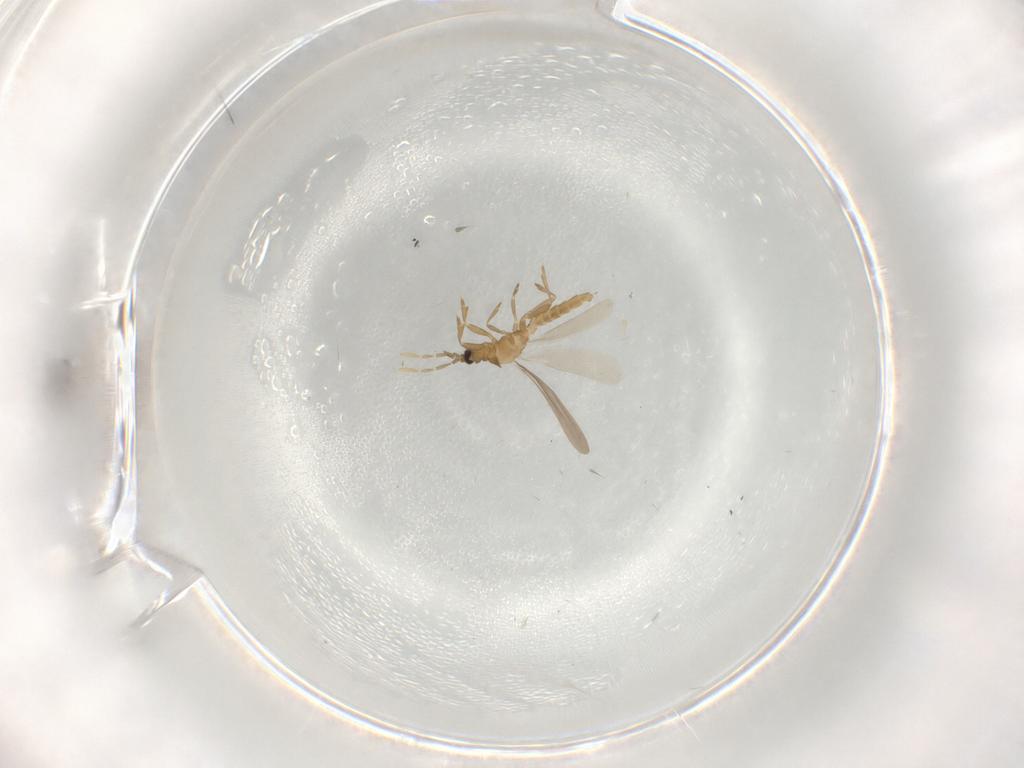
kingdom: Animalia
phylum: Arthropoda
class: Insecta
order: Hemiptera
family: Enicocephalidae
